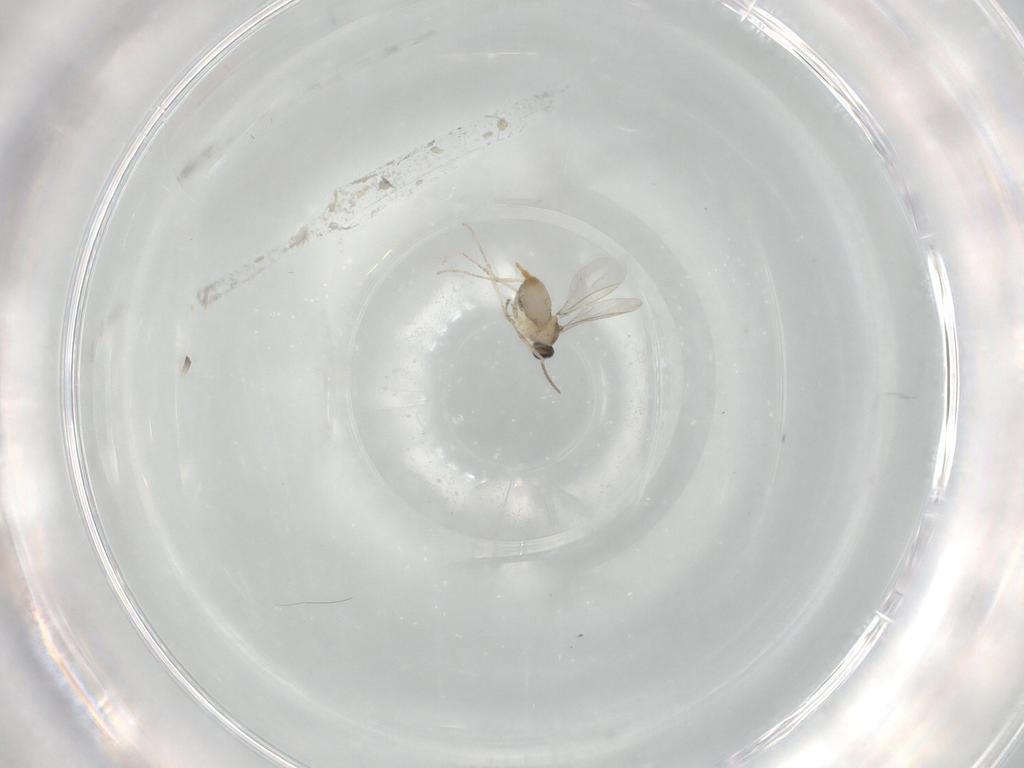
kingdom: Animalia
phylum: Arthropoda
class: Insecta
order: Diptera
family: Cecidomyiidae
